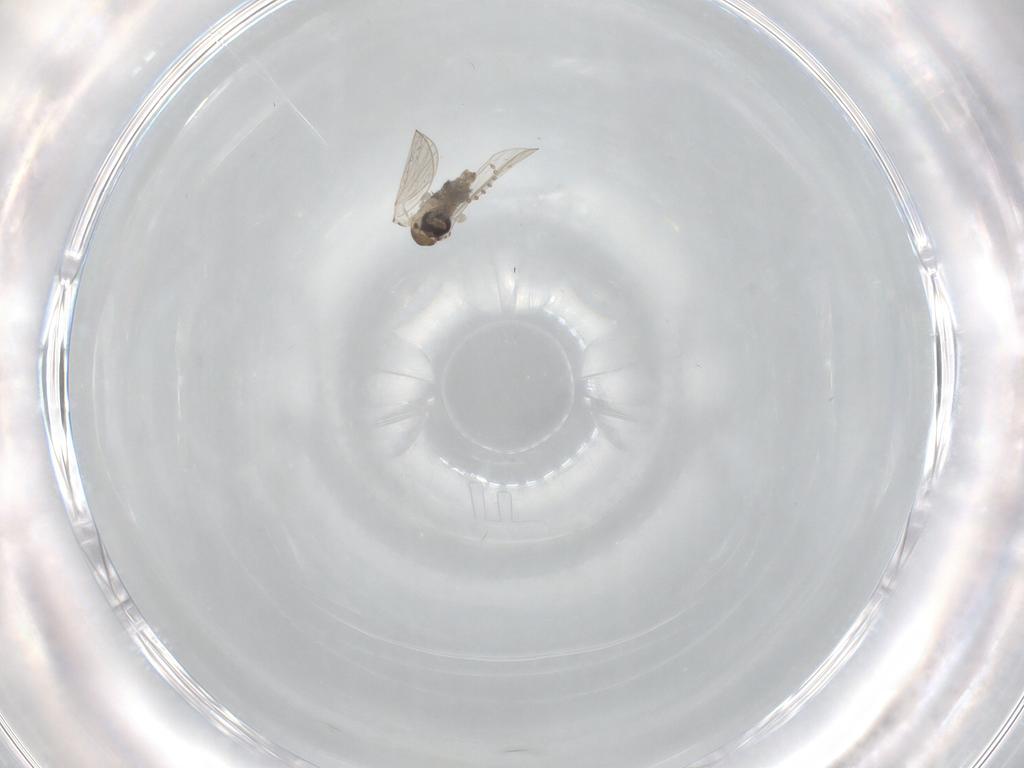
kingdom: Animalia
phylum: Arthropoda
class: Insecta
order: Diptera
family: Psychodidae
